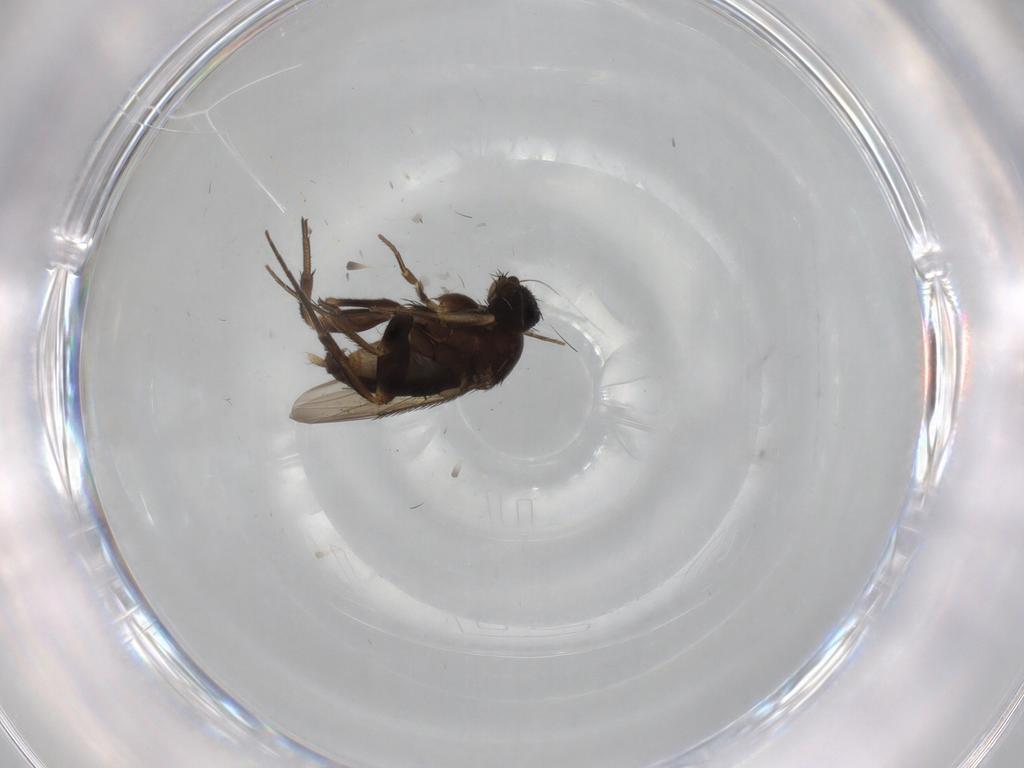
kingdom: Animalia
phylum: Arthropoda
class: Insecta
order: Diptera
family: Phoridae
